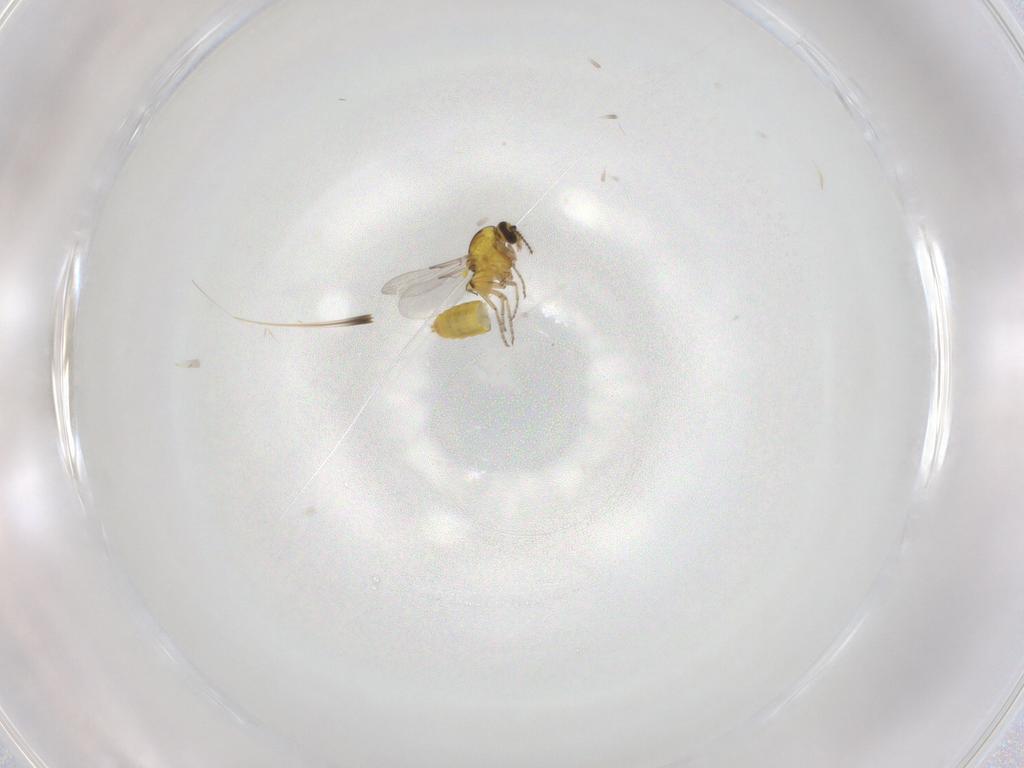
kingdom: Animalia
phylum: Arthropoda
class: Insecta
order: Diptera
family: Ceratopogonidae
